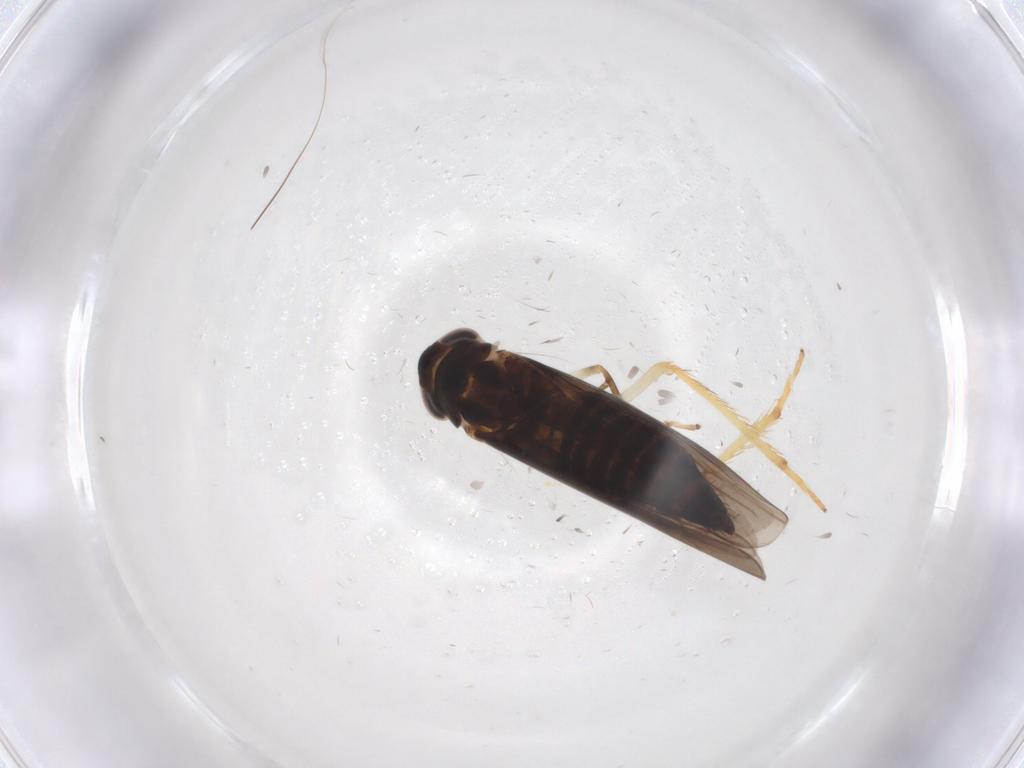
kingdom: Animalia
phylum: Arthropoda
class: Insecta
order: Hemiptera
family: Cicadellidae
